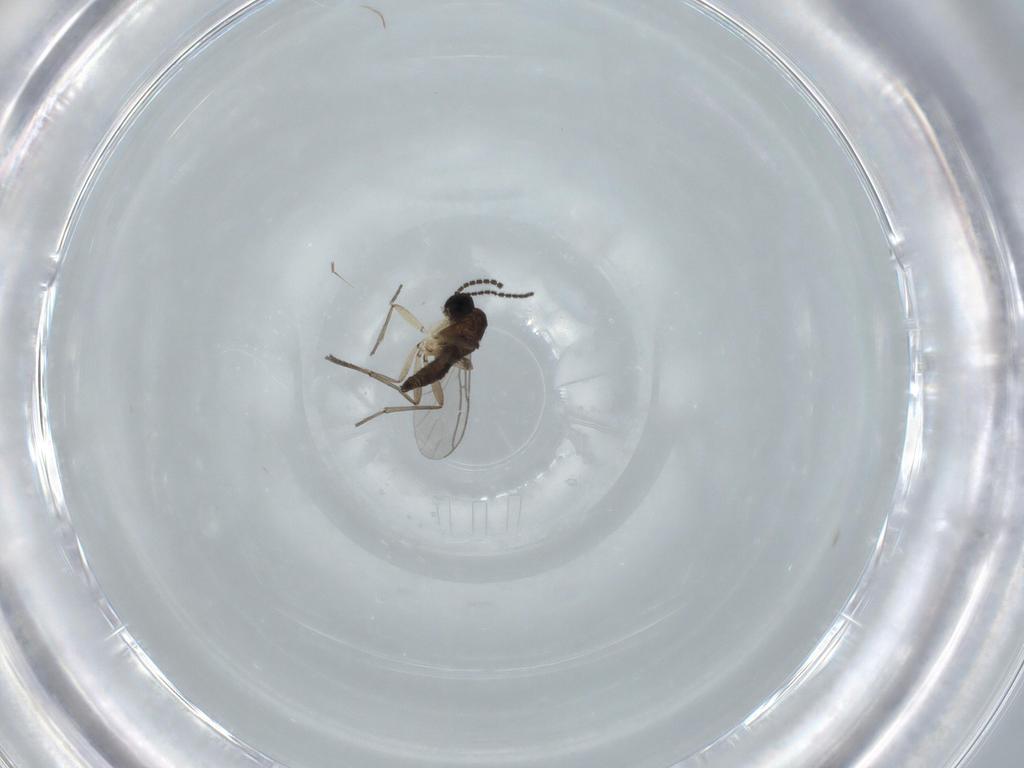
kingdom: Animalia
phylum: Arthropoda
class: Insecta
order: Diptera
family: Sciaridae
